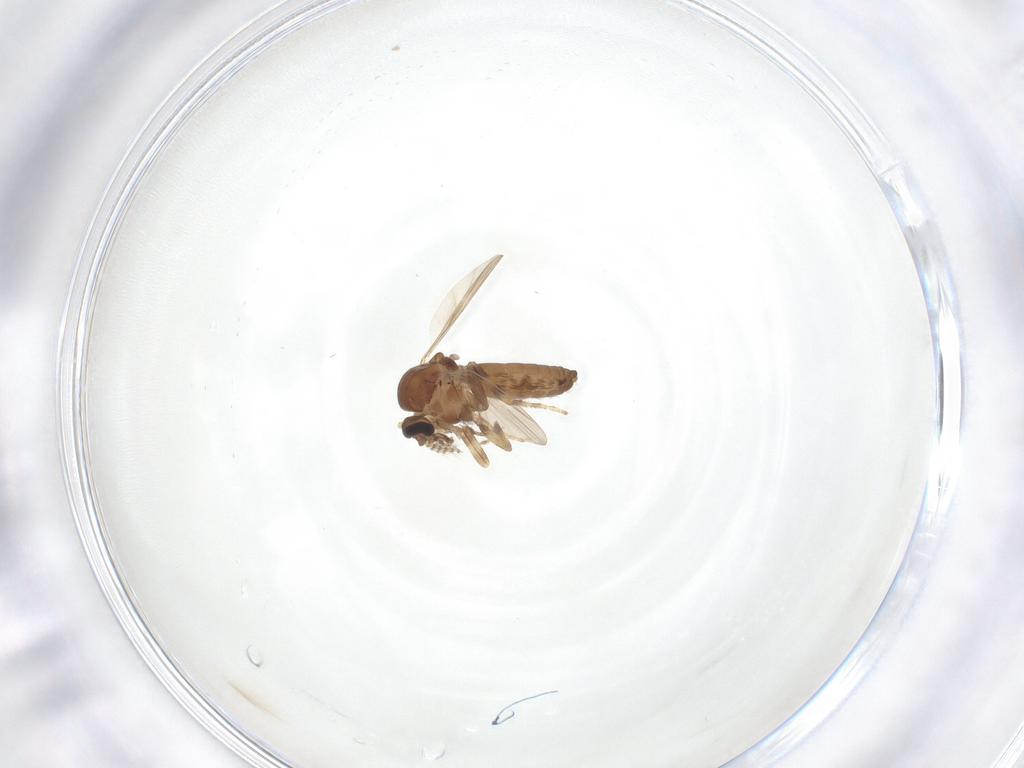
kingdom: Animalia
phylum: Arthropoda
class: Insecta
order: Diptera
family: Ceratopogonidae
